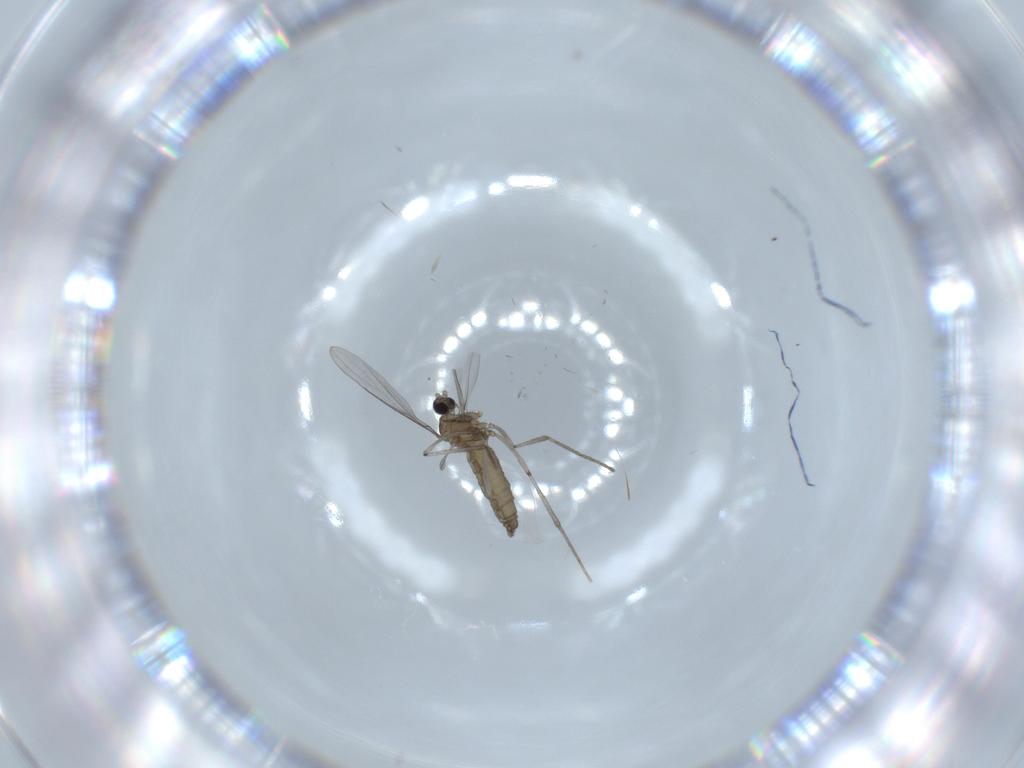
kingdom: Animalia
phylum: Arthropoda
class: Insecta
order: Diptera
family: Cecidomyiidae
